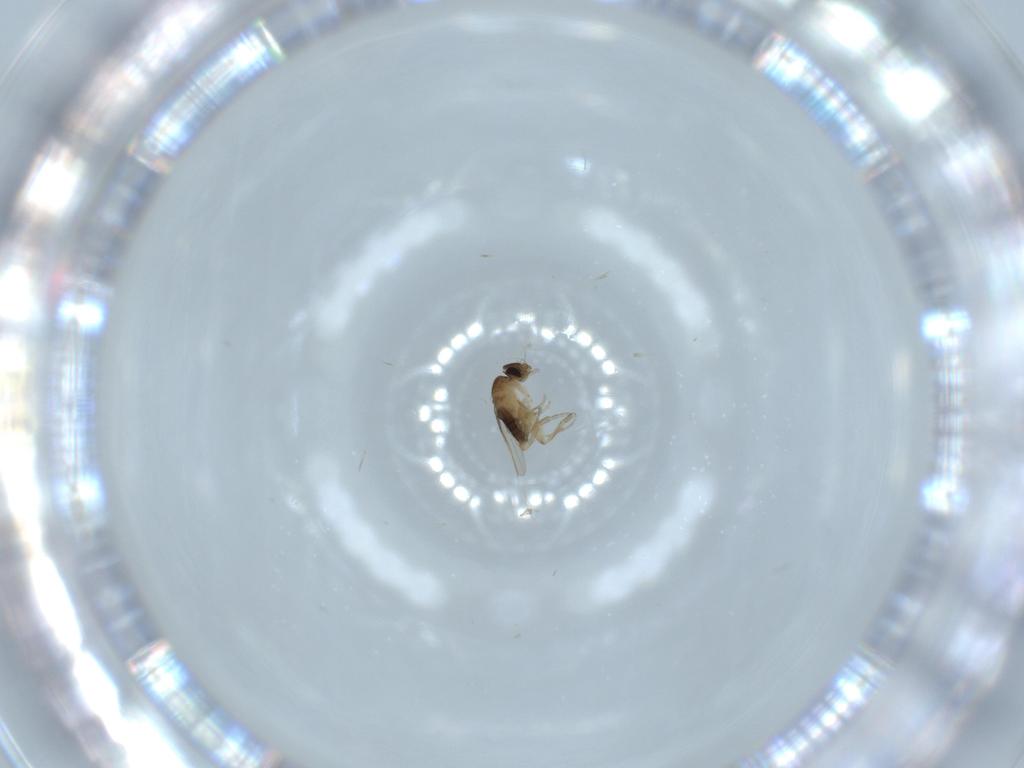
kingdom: Animalia
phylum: Arthropoda
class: Insecta
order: Diptera
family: Phoridae
